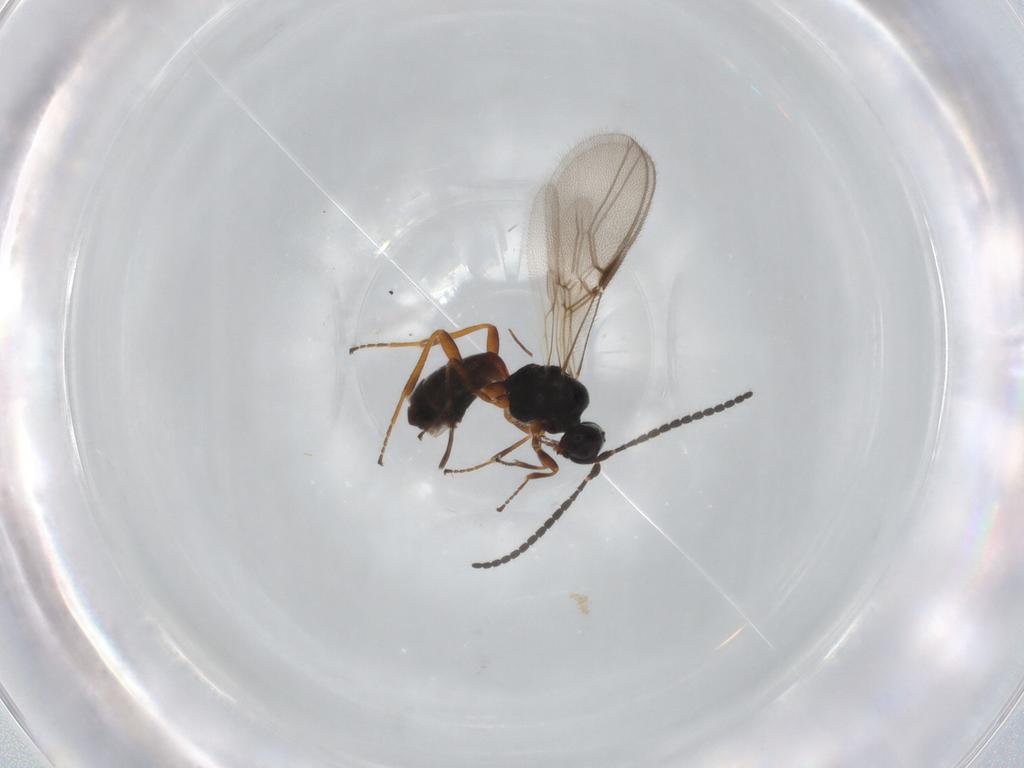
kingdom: Animalia
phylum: Arthropoda
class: Insecta
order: Hymenoptera
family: Braconidae
